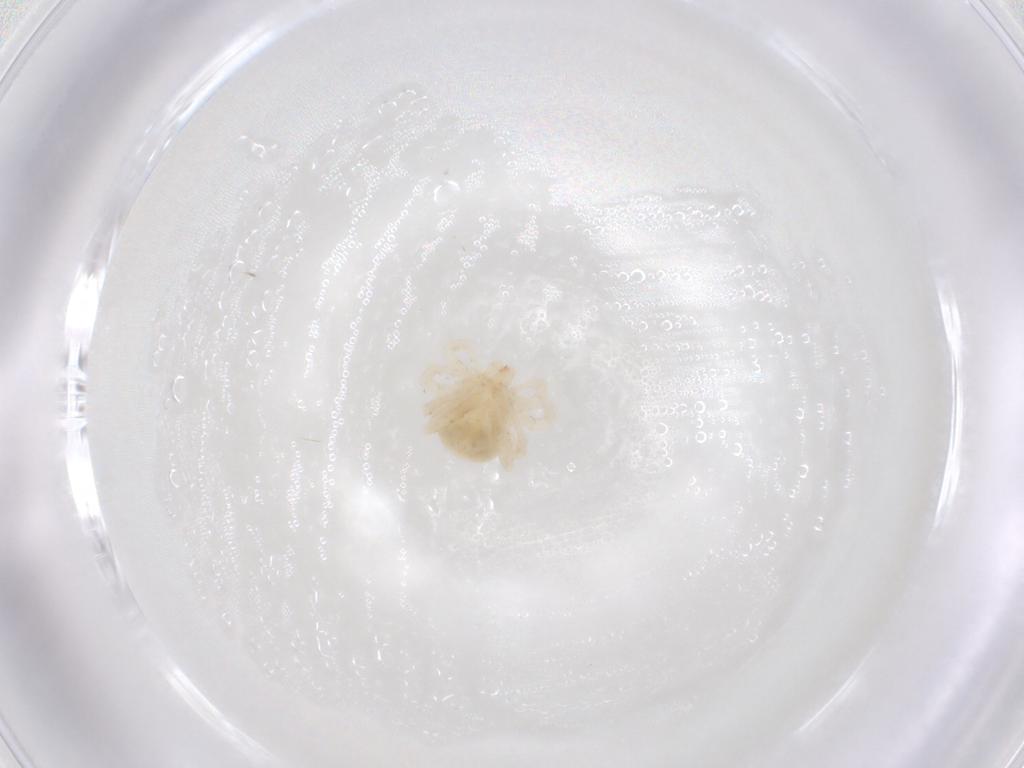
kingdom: Animalia
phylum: Arthropoda
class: Arachnida
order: Trombidiformes
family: Anystidae
